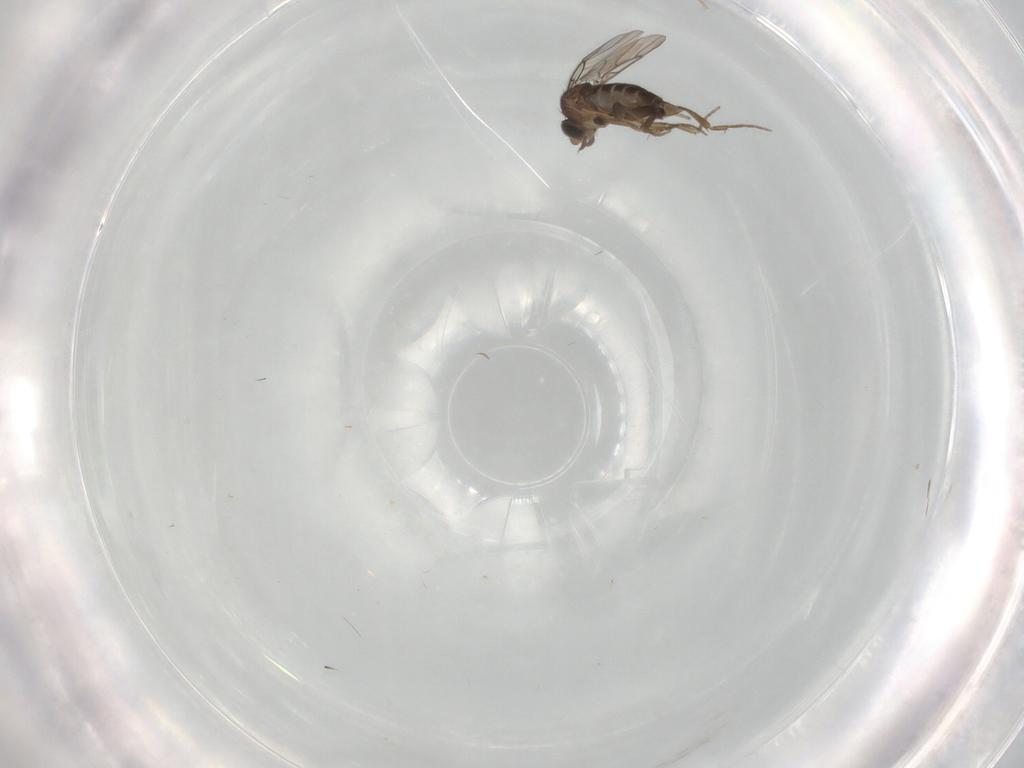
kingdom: Animalia
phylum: Arthropoda
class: Insecta
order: Diptera
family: Phoridae
